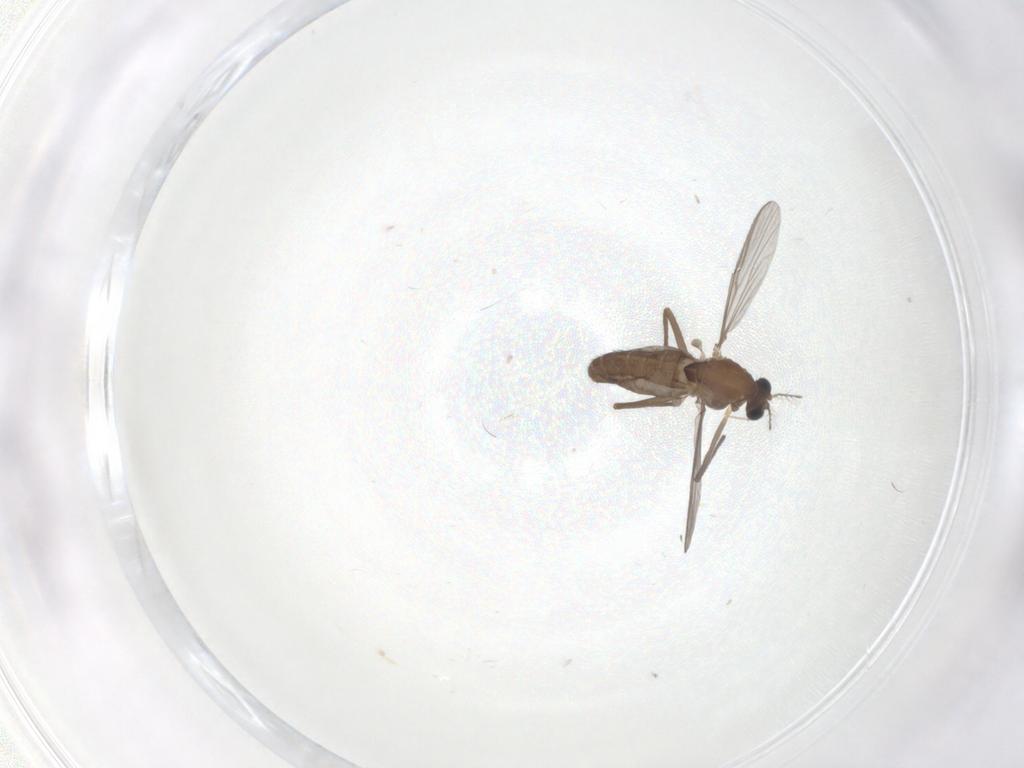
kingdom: Animalia
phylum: Arthropoda
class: Insecta
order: Diptera
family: Chironomidae
